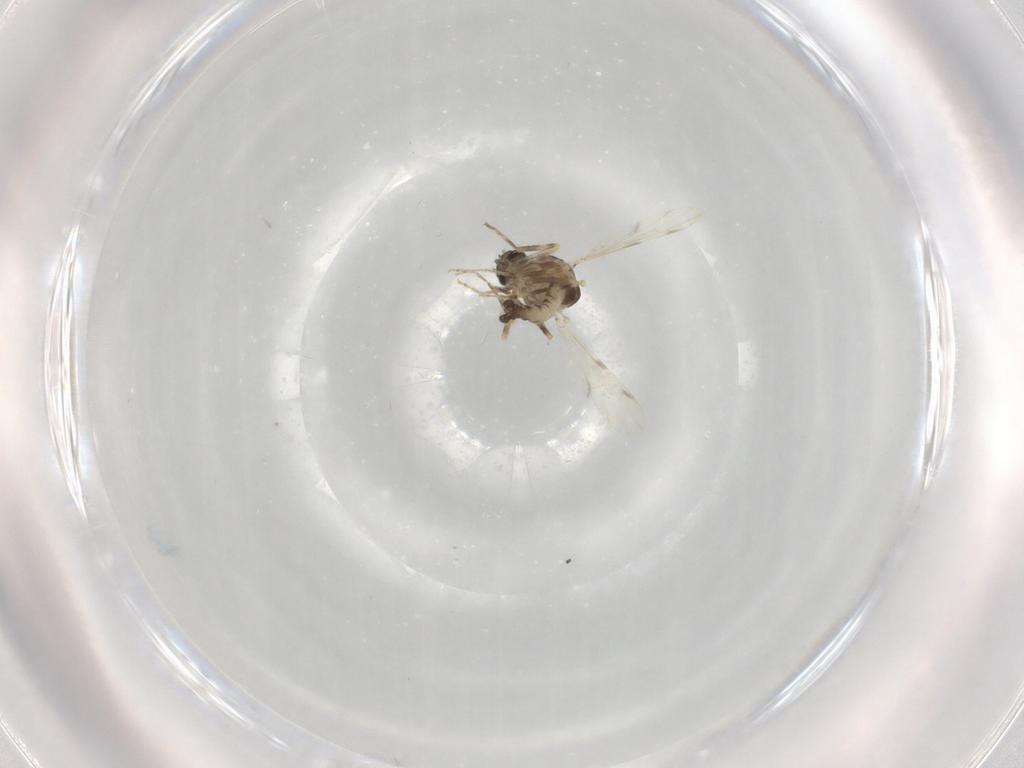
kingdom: Animalia
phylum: Arthropoda
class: Insecta
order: Diptera
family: Ceratopogonidae
